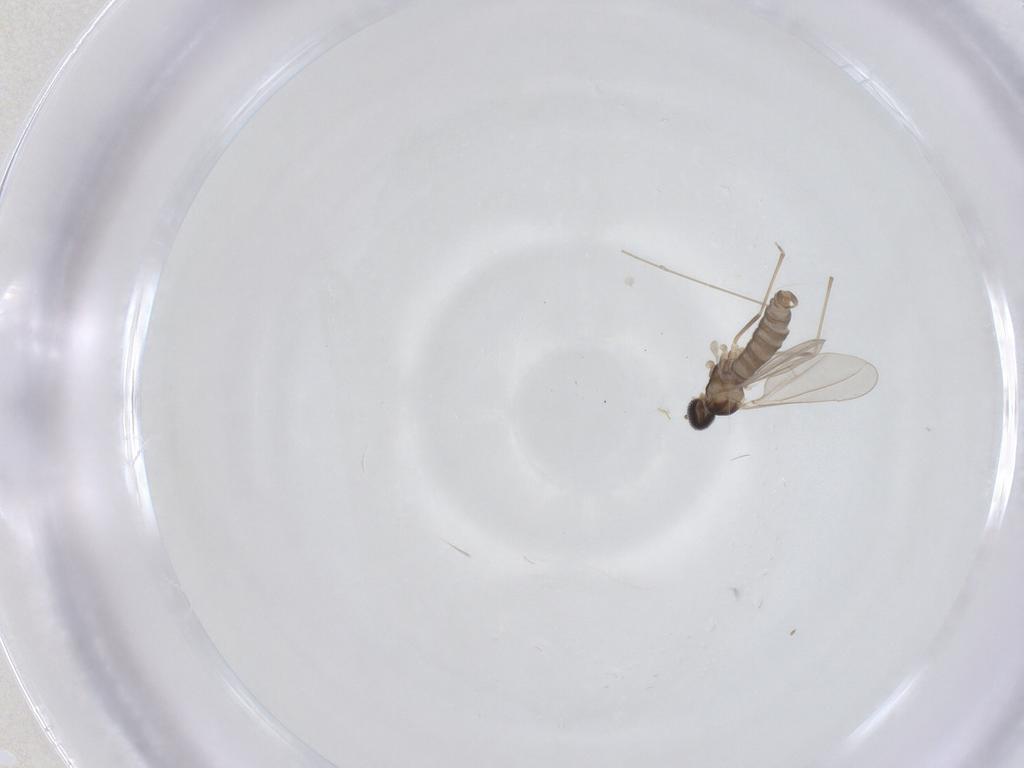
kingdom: Animalia
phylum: Arthropoda
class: Insecta
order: Diptera
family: Cecidomyiidae
